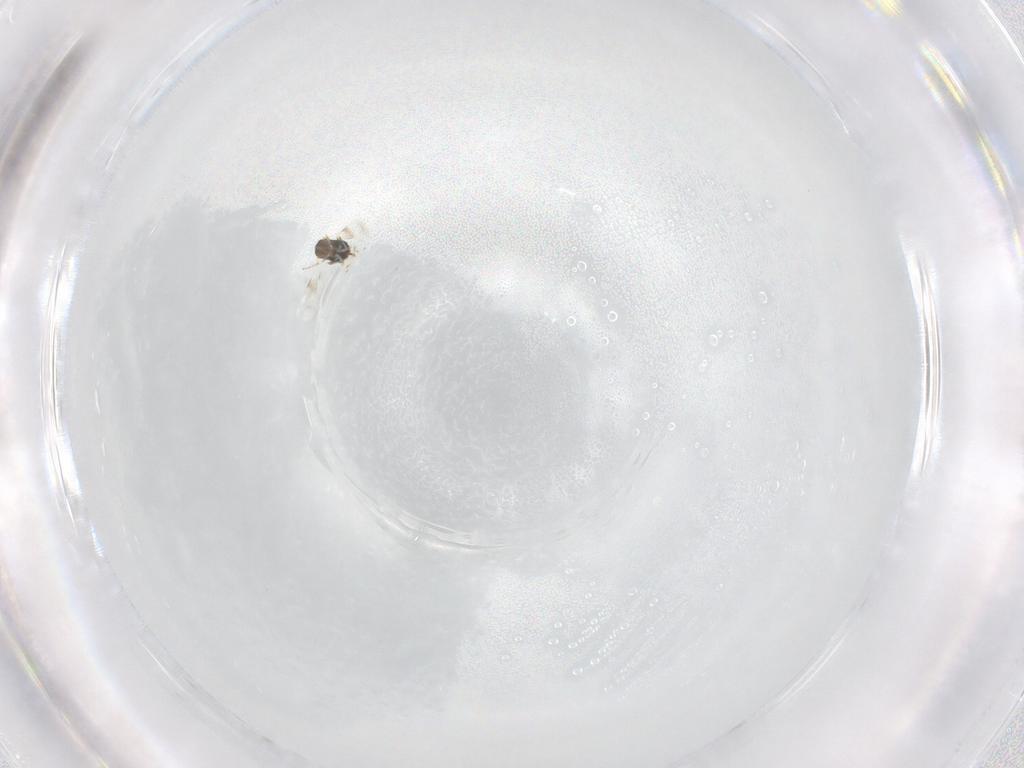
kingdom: Animalia
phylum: Arthropoda
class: Insecta
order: Hymenoptera
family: Azotidae
